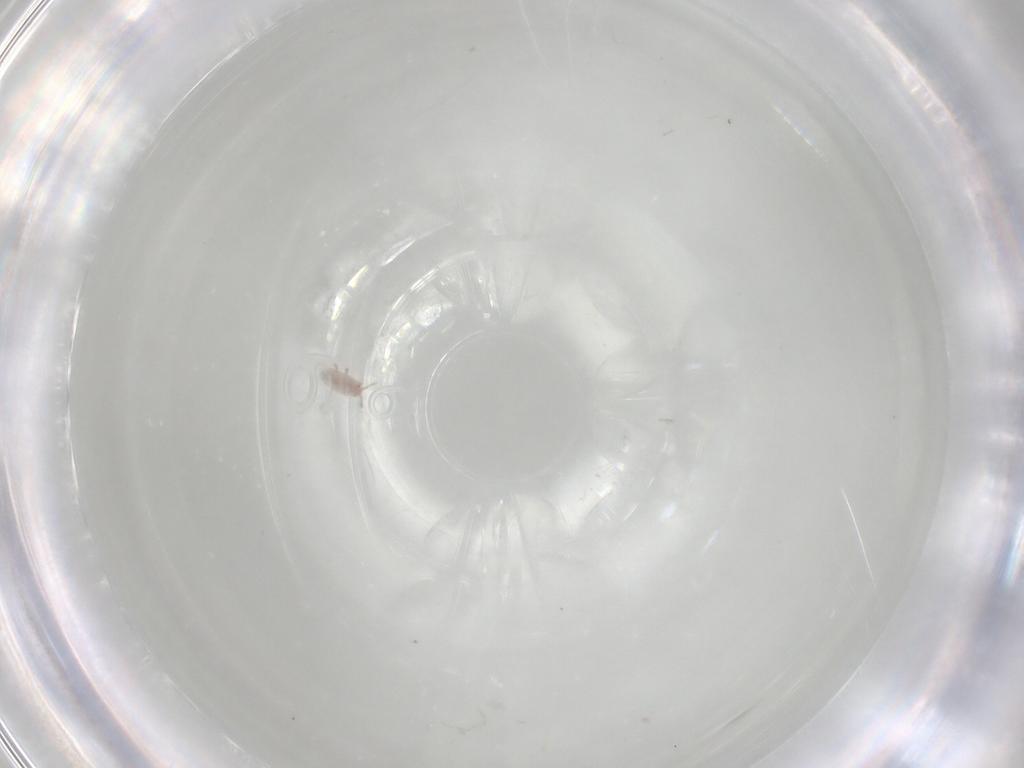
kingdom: Animalia
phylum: Arthropoda
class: Insecta
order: Hemiptera
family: Pseudococcidae
